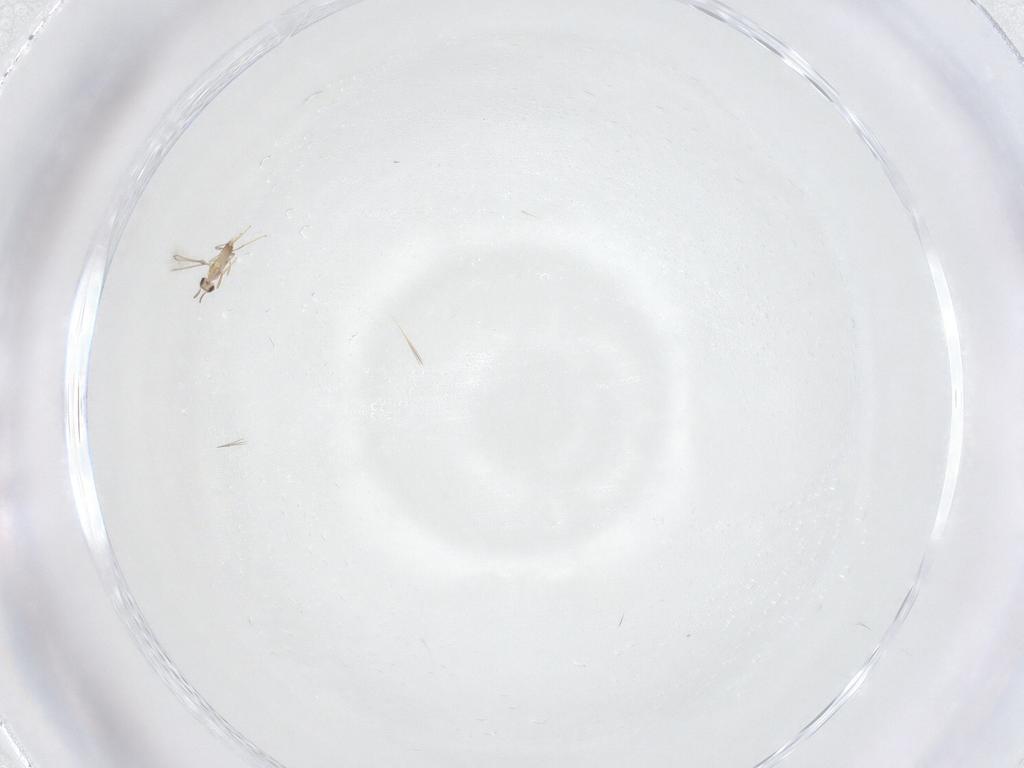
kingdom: Animalia
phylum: Arthropoda
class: Insecta
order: Hymenoptera
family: Mymaridae
